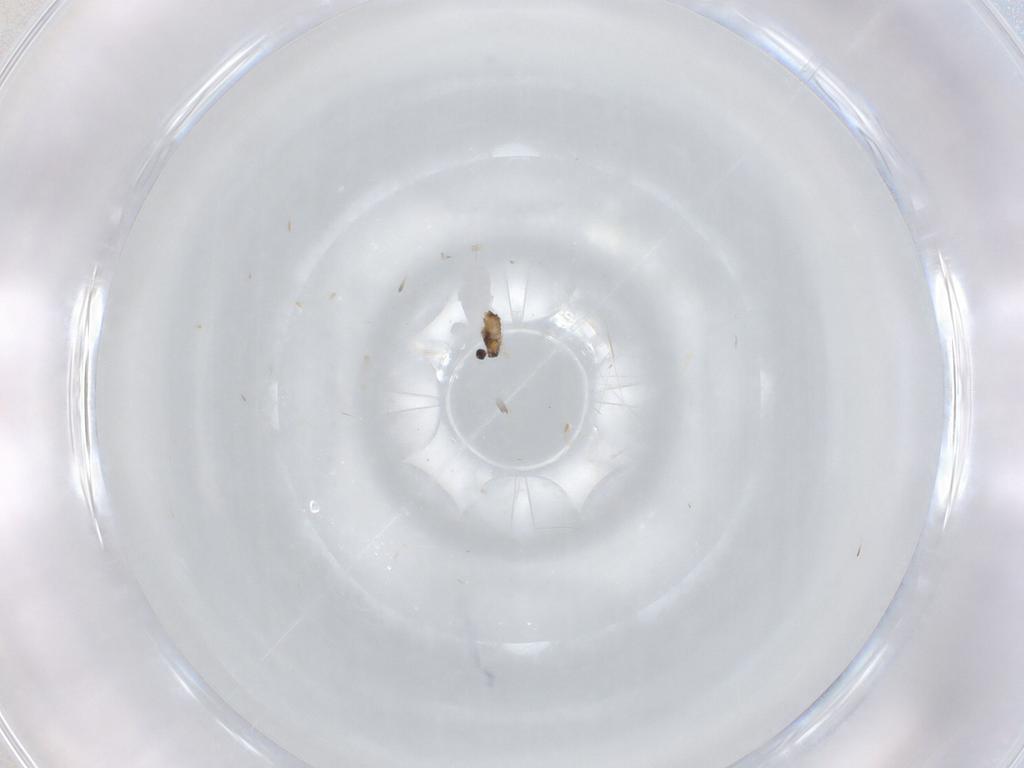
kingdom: Animalia
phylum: Arthropoda
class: Insecta
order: Diptera
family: Cecidomyiidae
